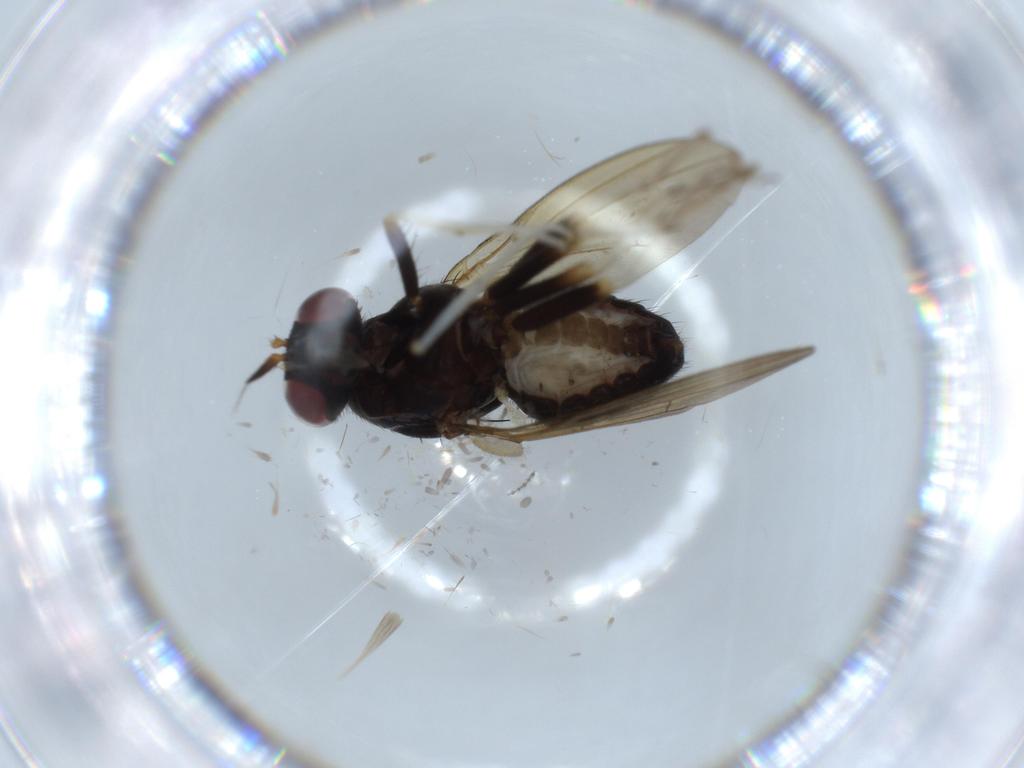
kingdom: Animalia
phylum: Arthropoda
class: Insecta
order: Diptera
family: Lauxaniidae
